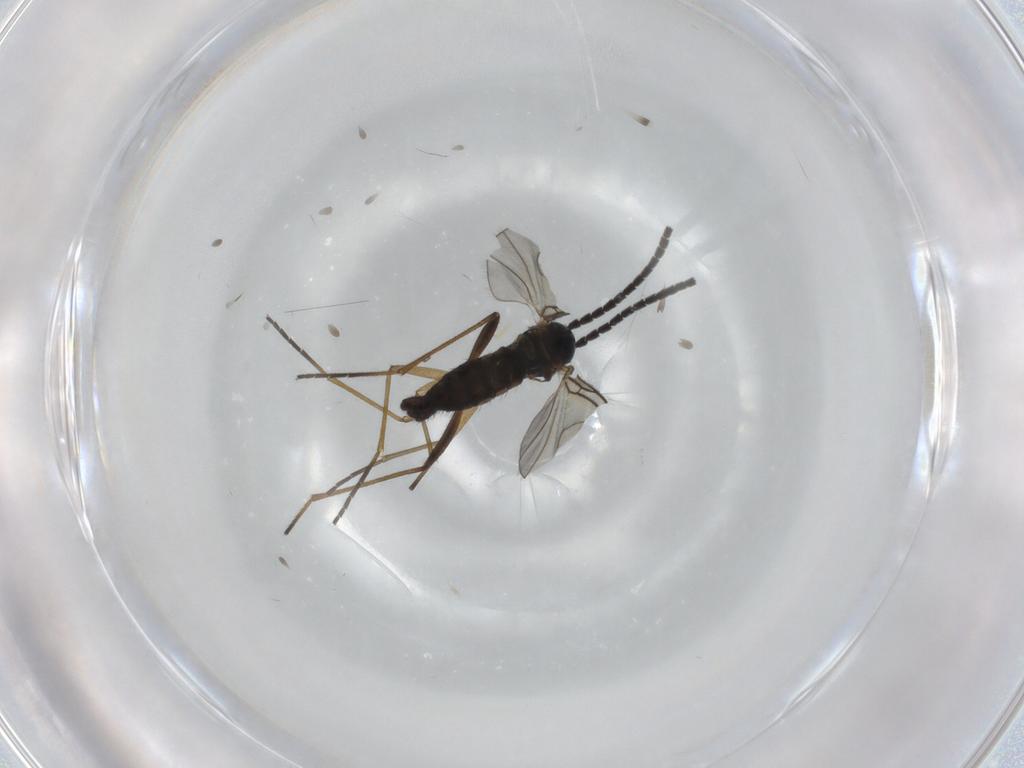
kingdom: Animalia
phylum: Arthropoda
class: Insecta
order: Diptera
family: Sciaridae
